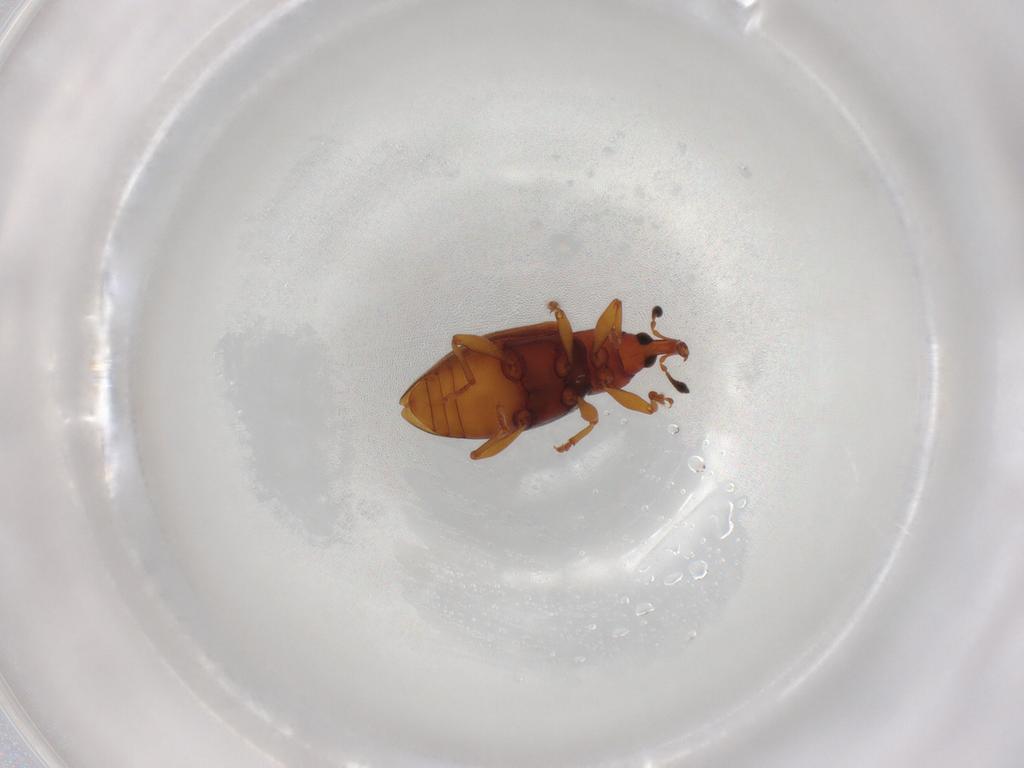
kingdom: Animalia
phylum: Arthropoda
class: Insecta
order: Coleoptera
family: Curculionidae
